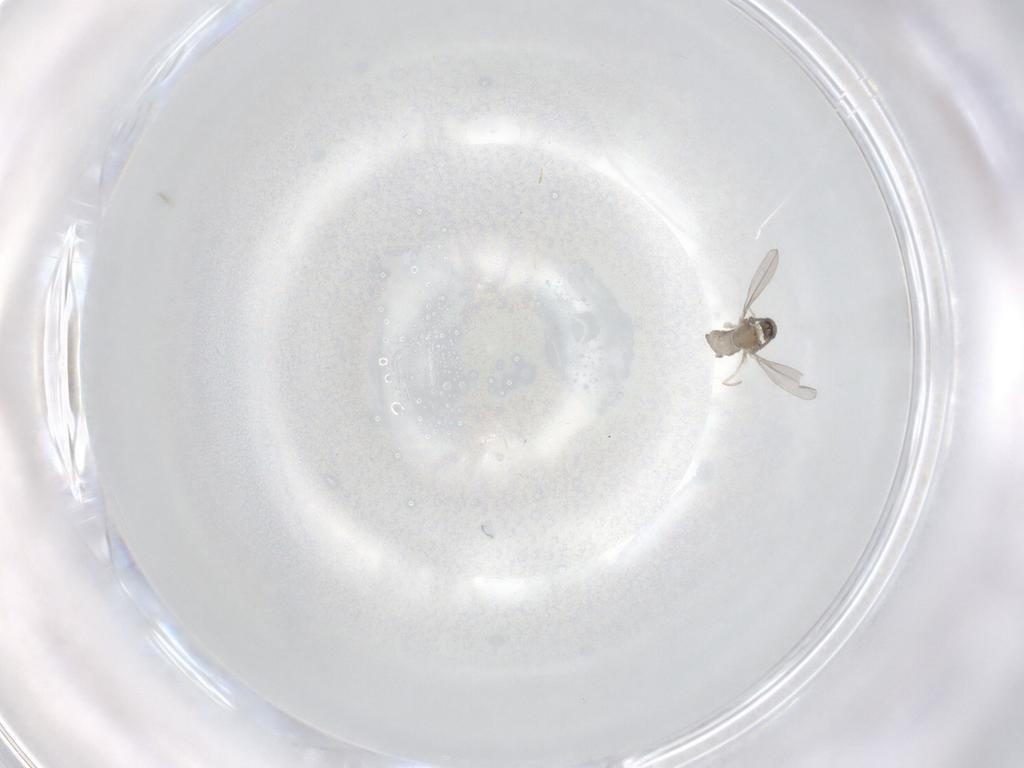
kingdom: Animalia
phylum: Arthropoda
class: Insecta
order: Diptera
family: Cecidomyiidae
